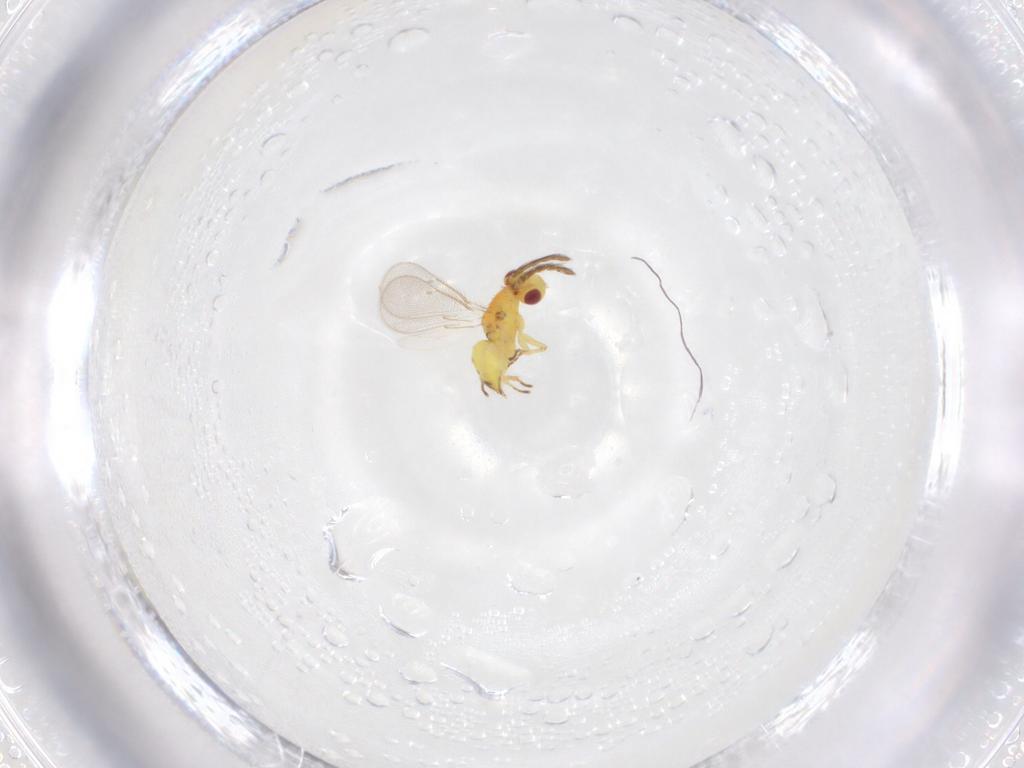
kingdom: Animalia
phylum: Arthropoda
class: Insecta
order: Hymenoptera
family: Eulophidae
